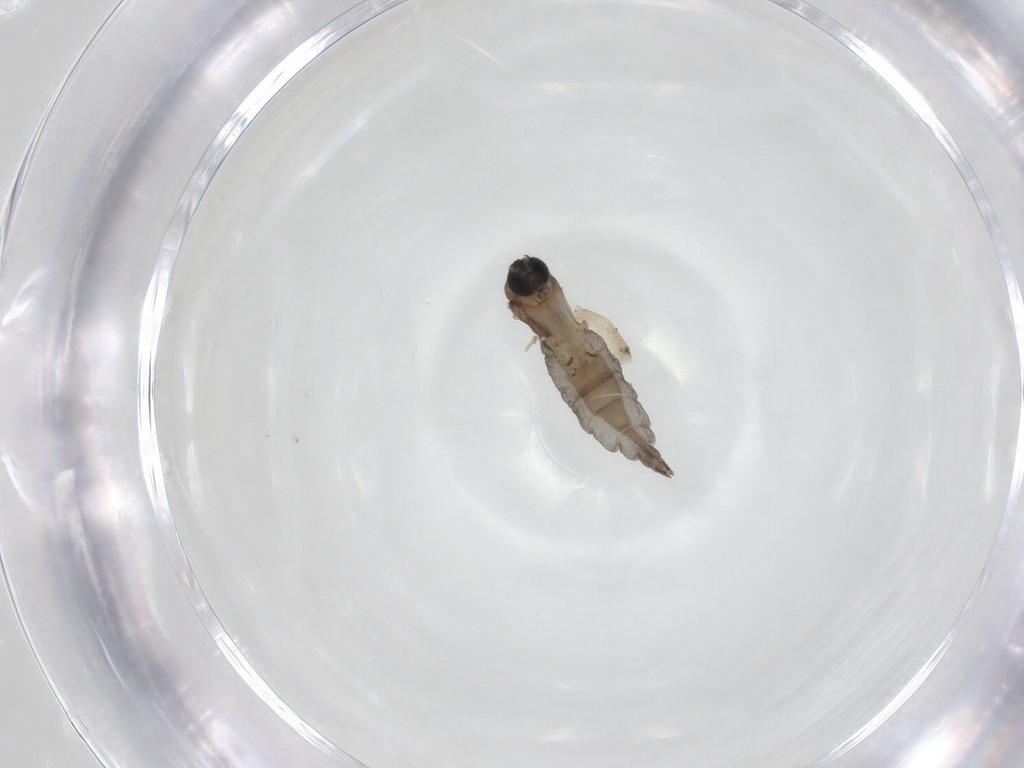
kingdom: Animalia
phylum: Arthropoda
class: Insecta
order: Diptera
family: Sciaridae
